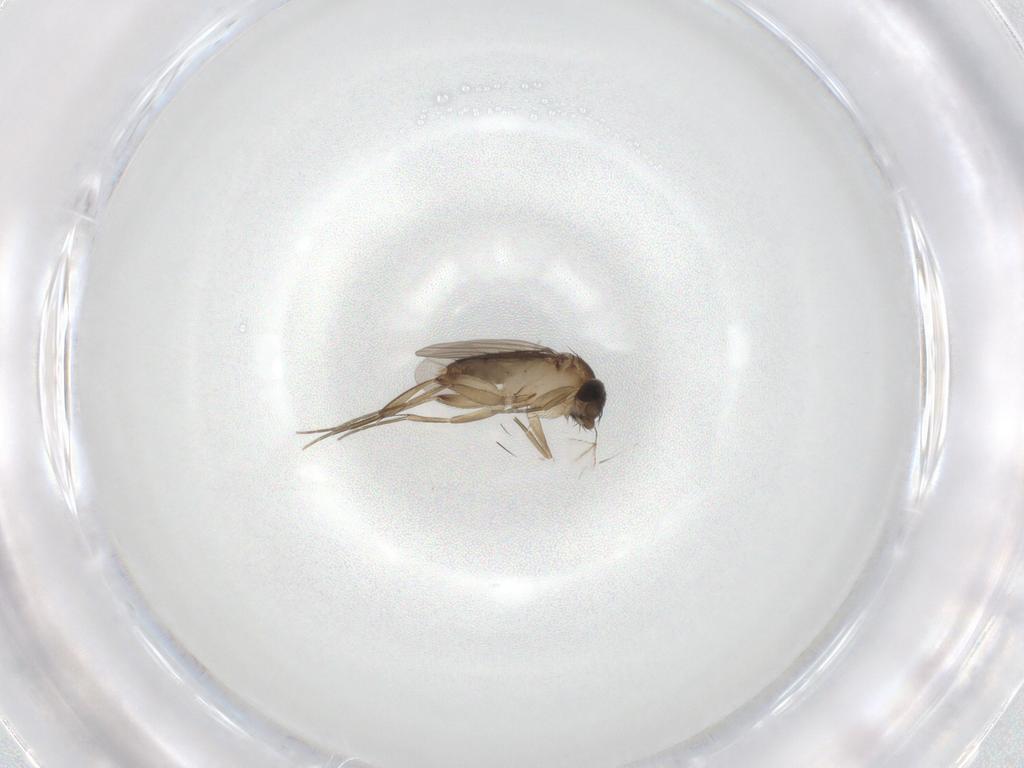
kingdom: Animalia
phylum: Arthropoda
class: Insecta
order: Diptera
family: Phoridae
